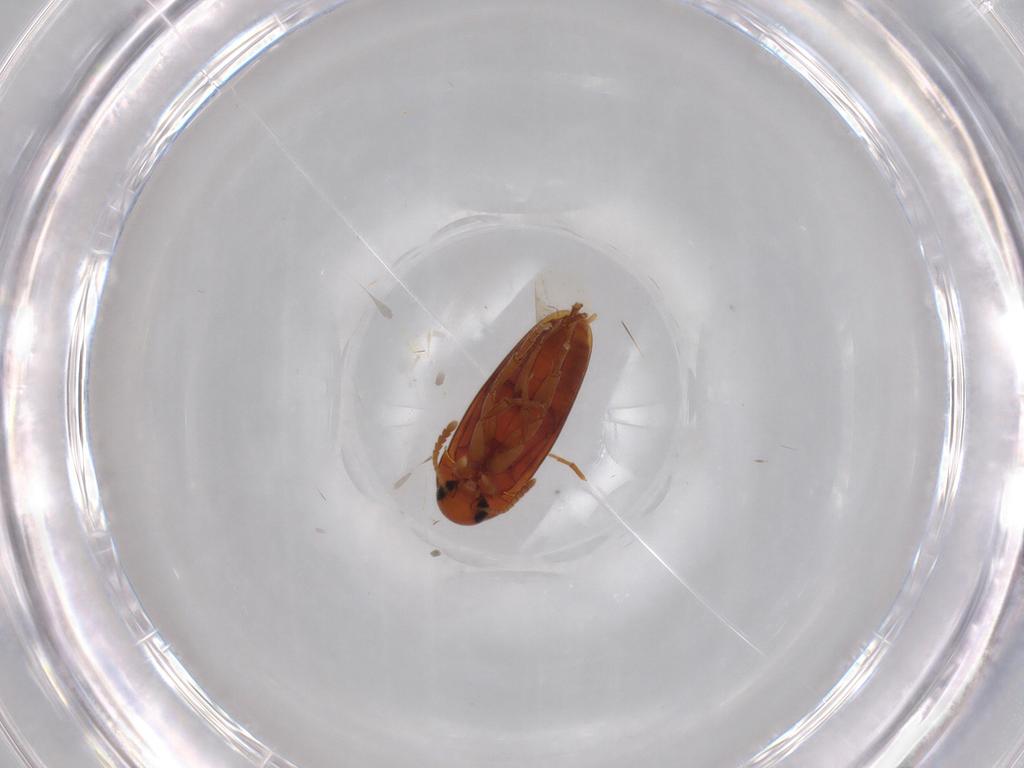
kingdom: Animalia
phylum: Arthropoda
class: Insecta
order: Coleoptera
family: Scraptiidae
